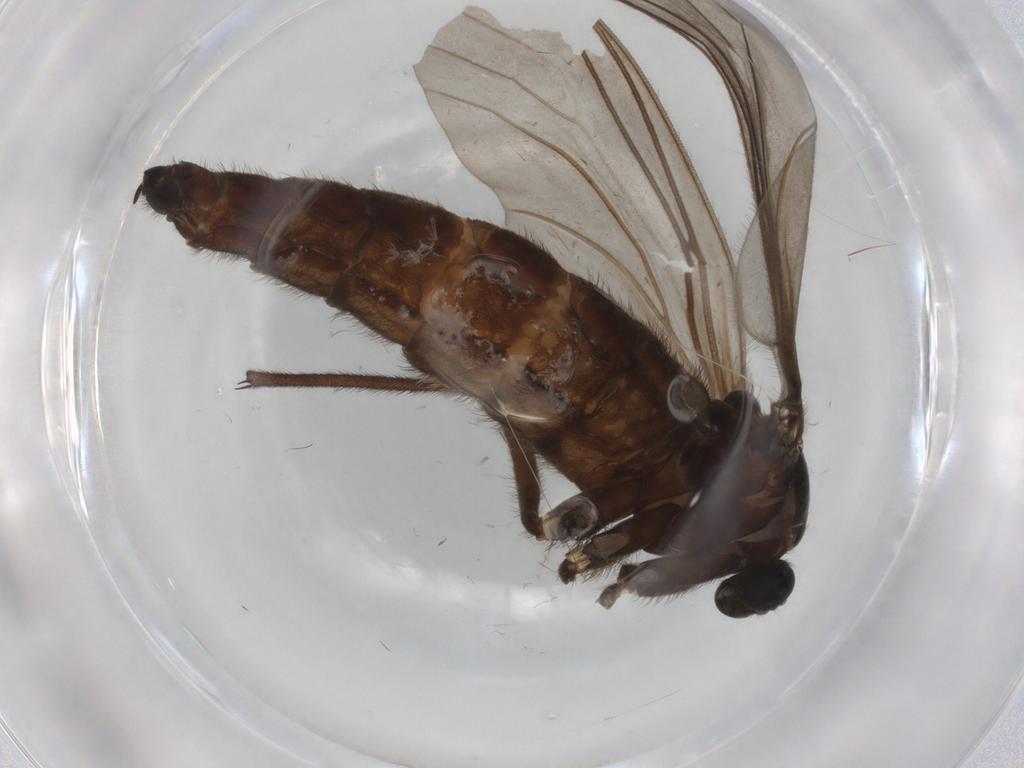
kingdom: Animalia
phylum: Arthropoda
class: Insecta
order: Diptera
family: Sciaridae
